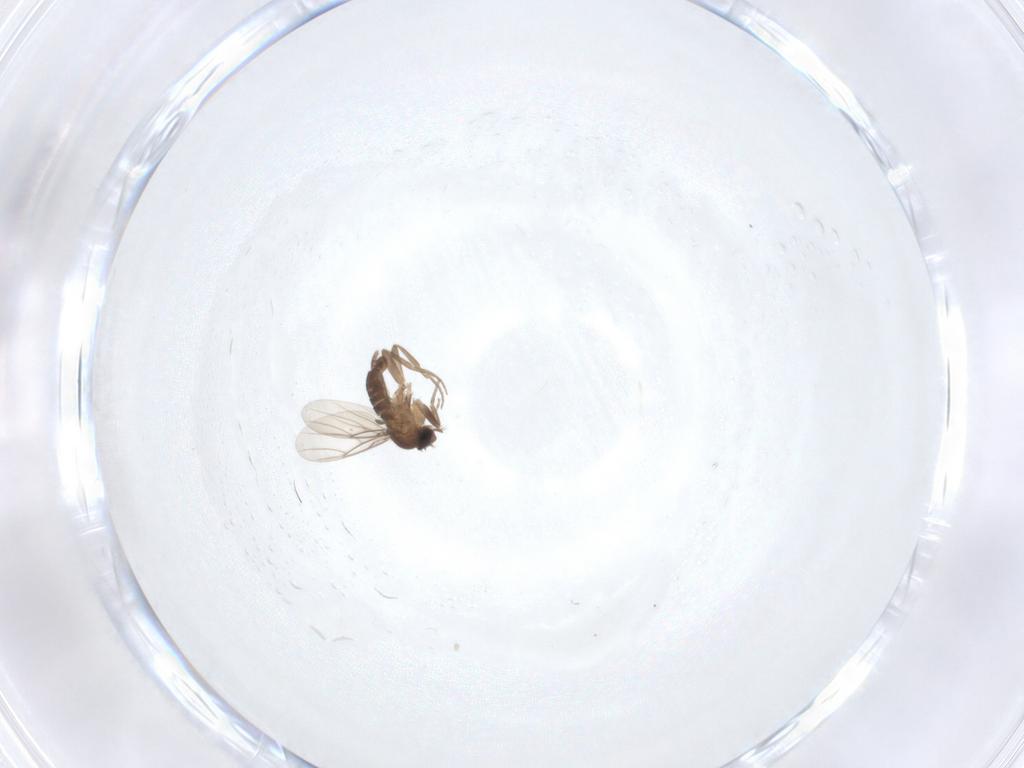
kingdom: Animalia
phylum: Arthropoda
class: Insecta
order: Diptera
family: Phoridae
